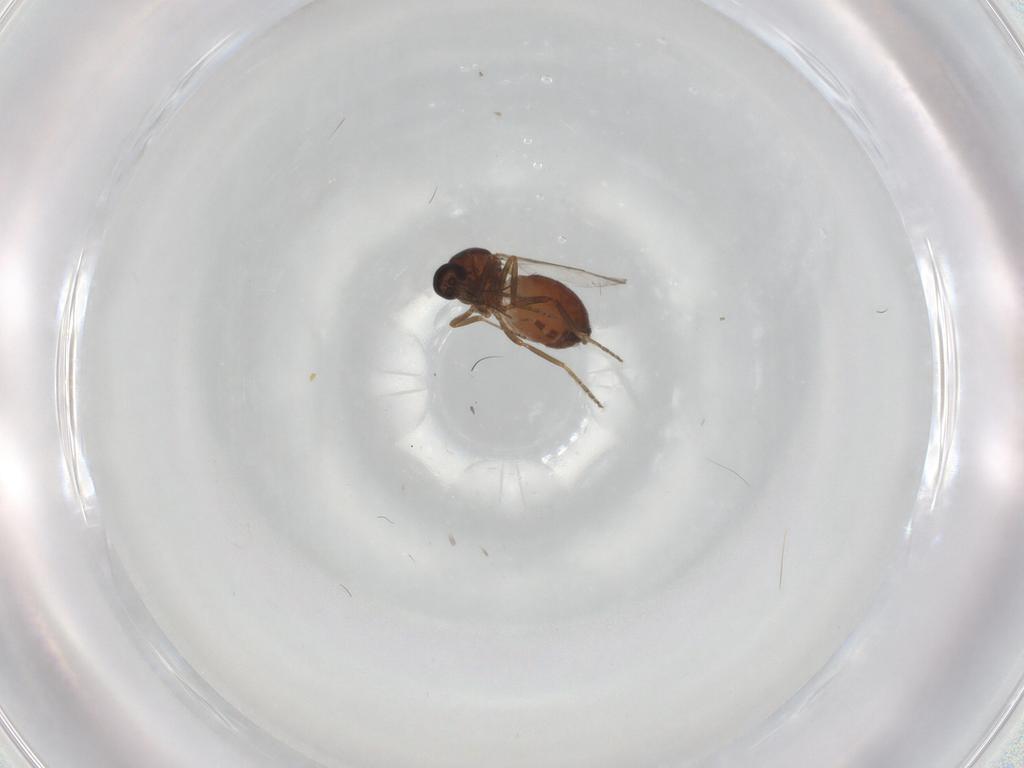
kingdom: Animalia
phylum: Arthropoda
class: Insecta
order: Diptera
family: Ceratopogonidae
